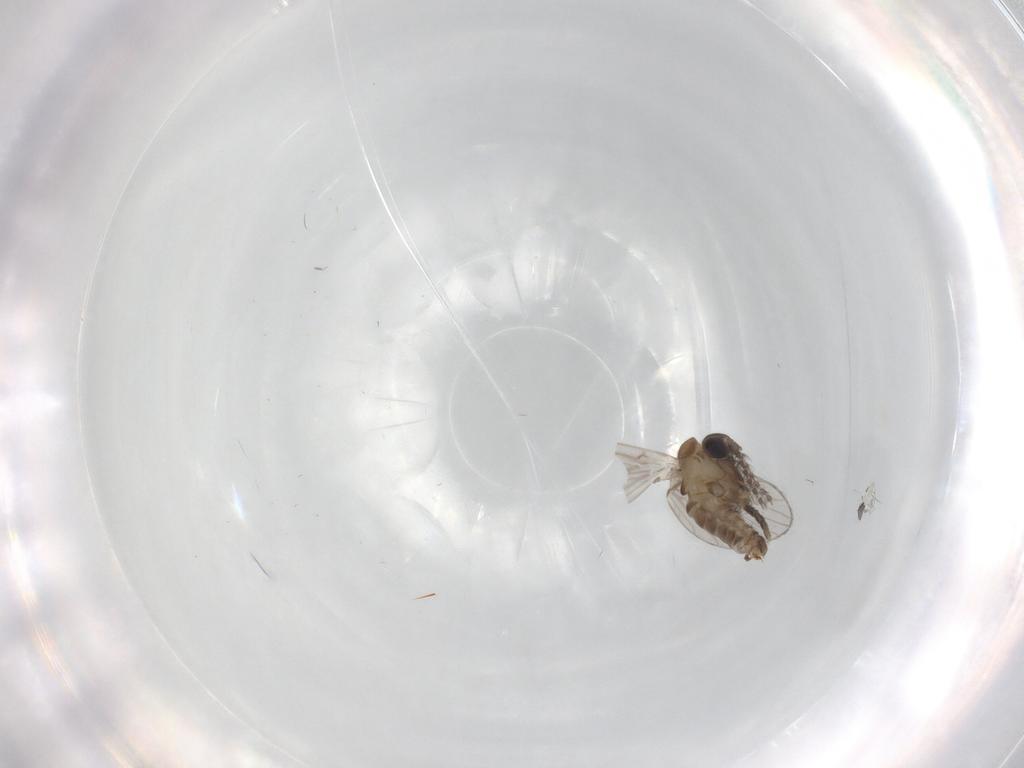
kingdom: Animalia
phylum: Arthropoda
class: Insecta
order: Diptera
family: Psychodidae
